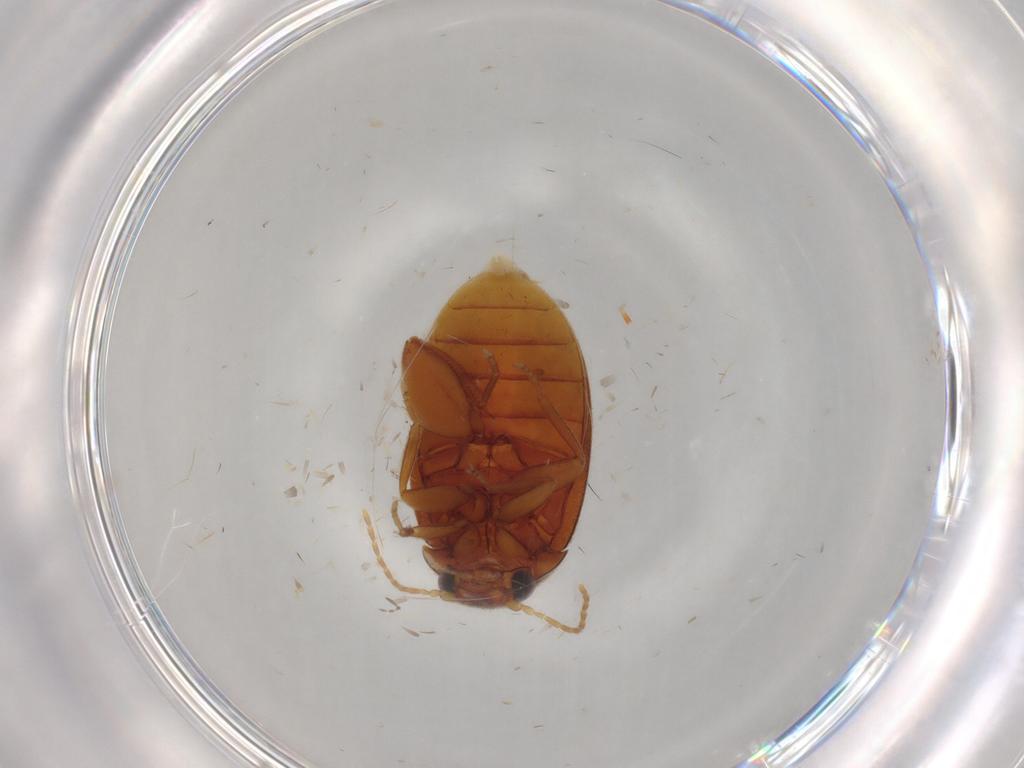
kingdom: Animalia
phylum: Arthropoda
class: Insecta
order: Coleoptera
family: Scirtidae
